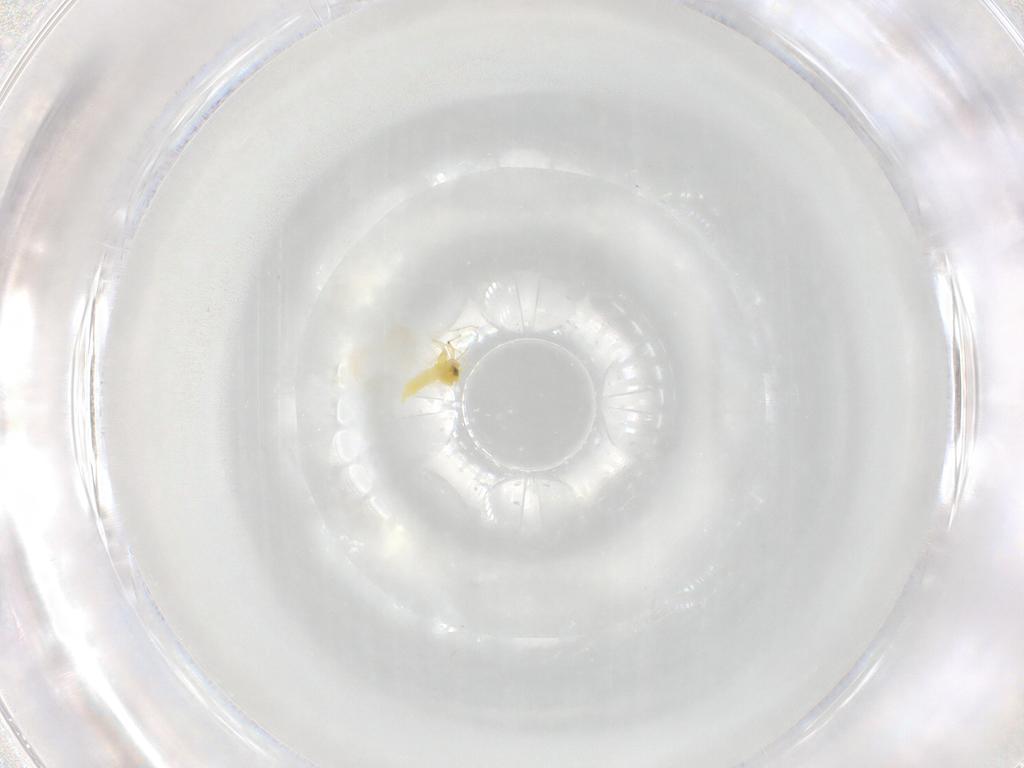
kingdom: Animalia
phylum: Arthropoda
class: Insecta
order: Hemiptera
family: Aleyrodidae
